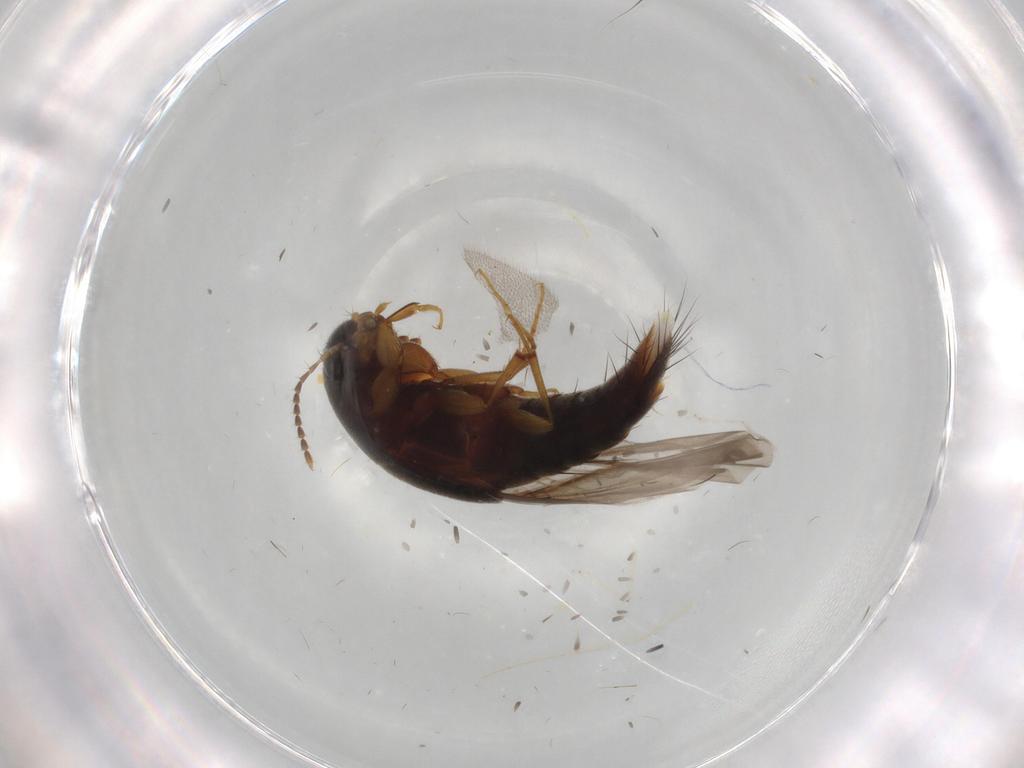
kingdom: Animalia
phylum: Arthropoda
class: Insecta
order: Coleoptera
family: Staphylinidae
